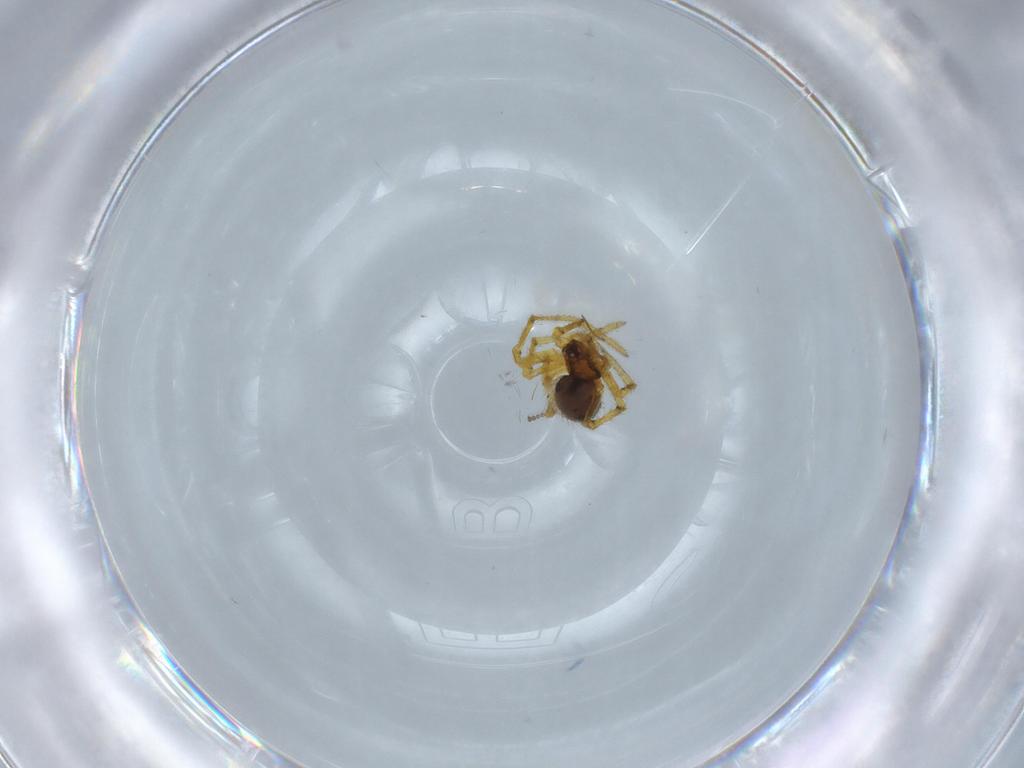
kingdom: Animalia
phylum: Arthropoda
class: Arachnida
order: Araneae
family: Theridiidae
